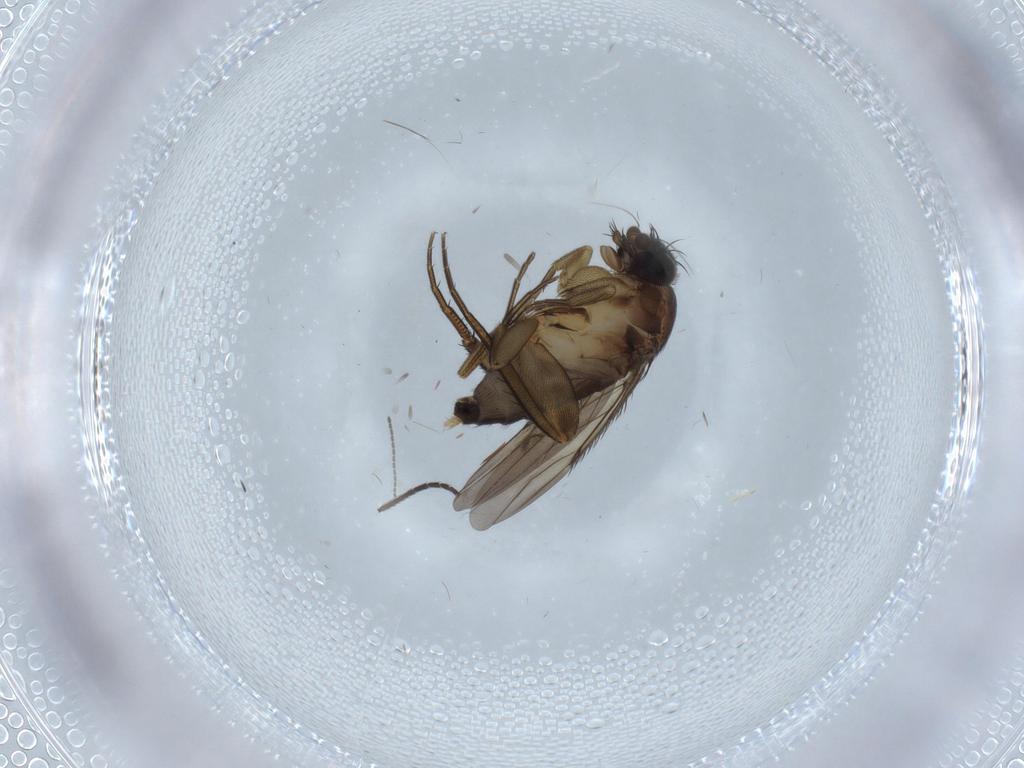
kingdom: Animalia
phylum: Arthropoda
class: Insecta
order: Diptera
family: Phoridae
